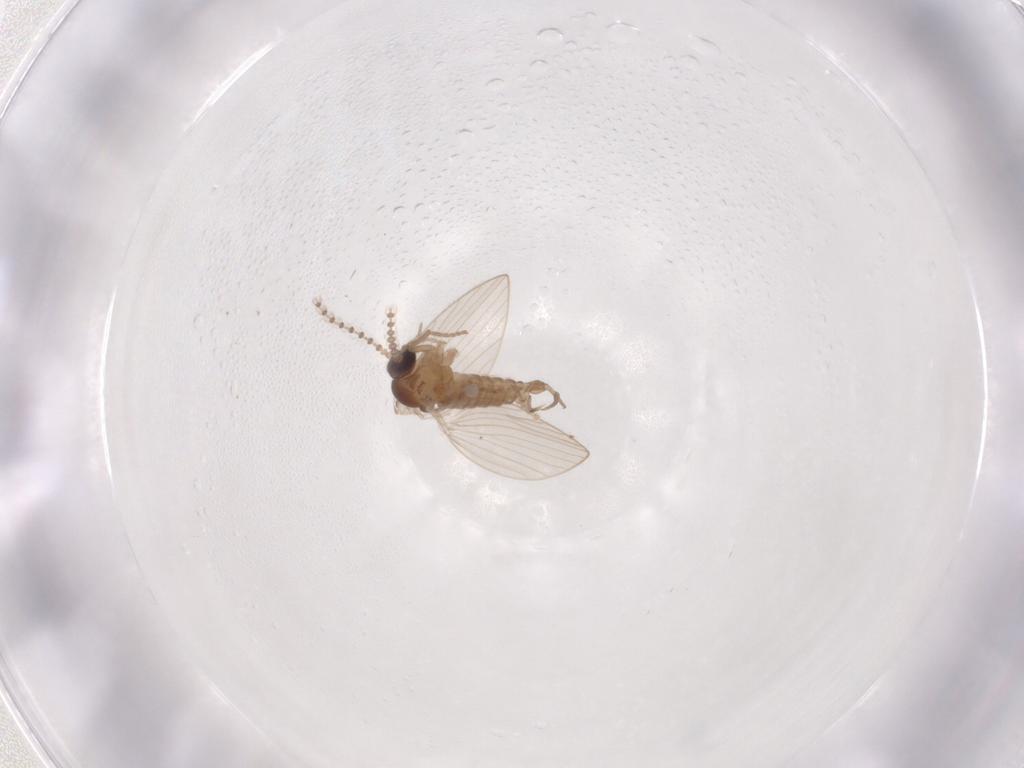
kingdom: Animalia
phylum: Arthropoda
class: Insecta
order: Diptera
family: Psychodidae
